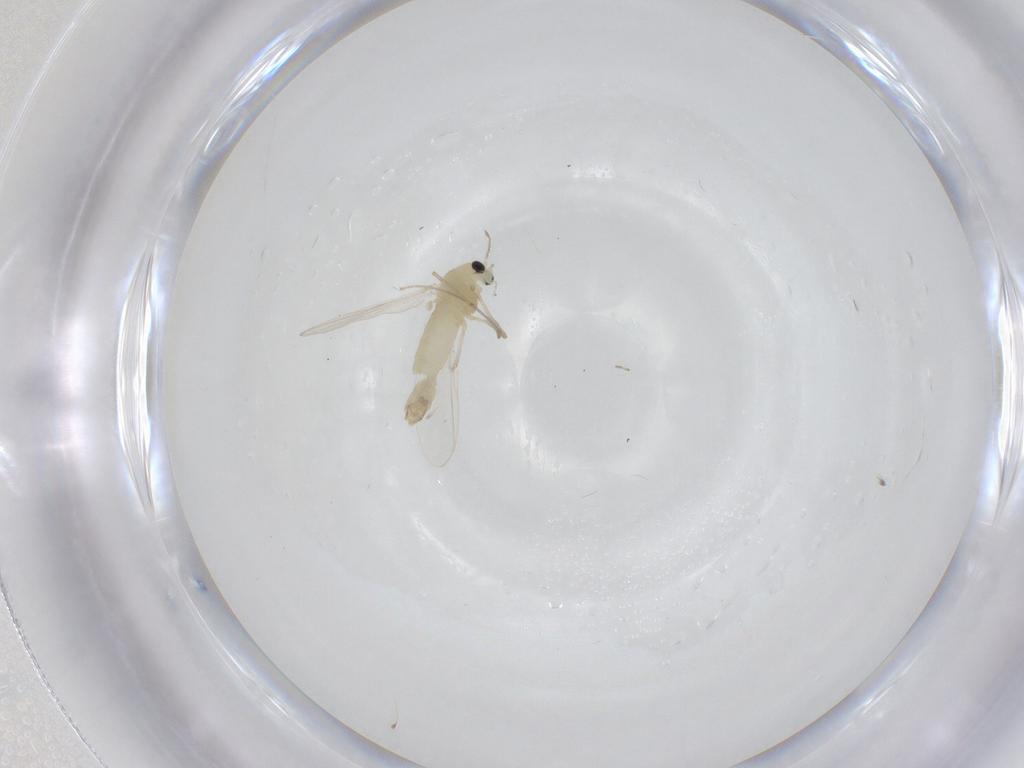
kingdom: Animalia
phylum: Arthropoda
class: Insecta
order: Diptera
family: Chironomidae
